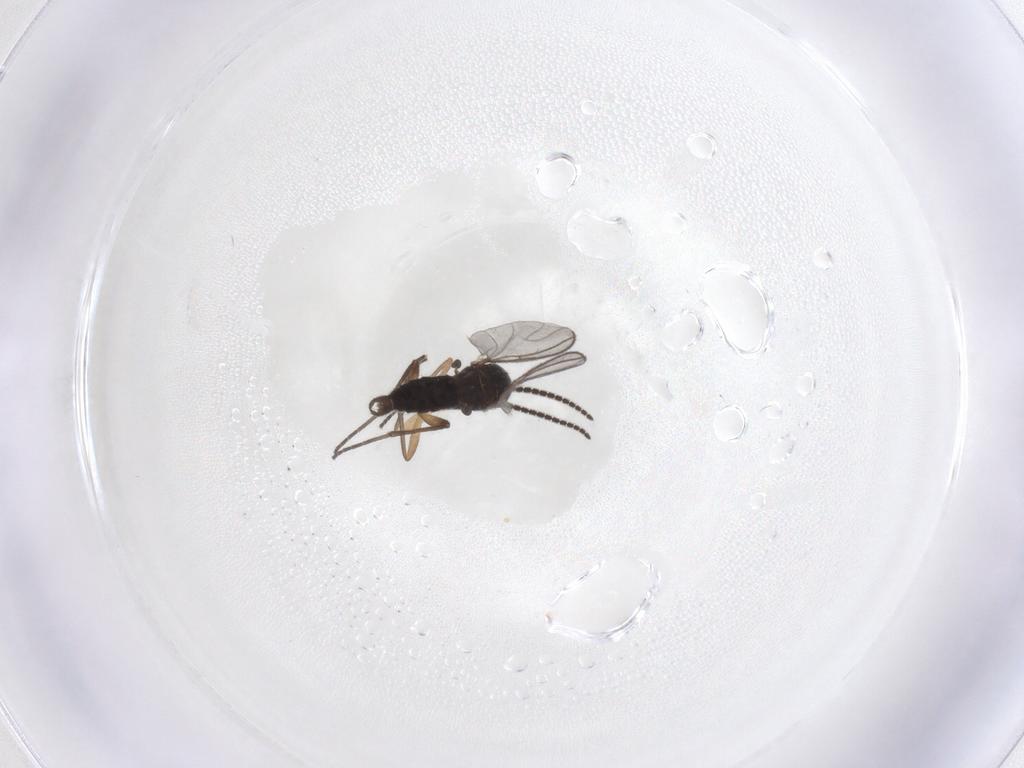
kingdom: Animalia
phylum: Arthropoda
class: Insecta
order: Diptera
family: Sciaridae
